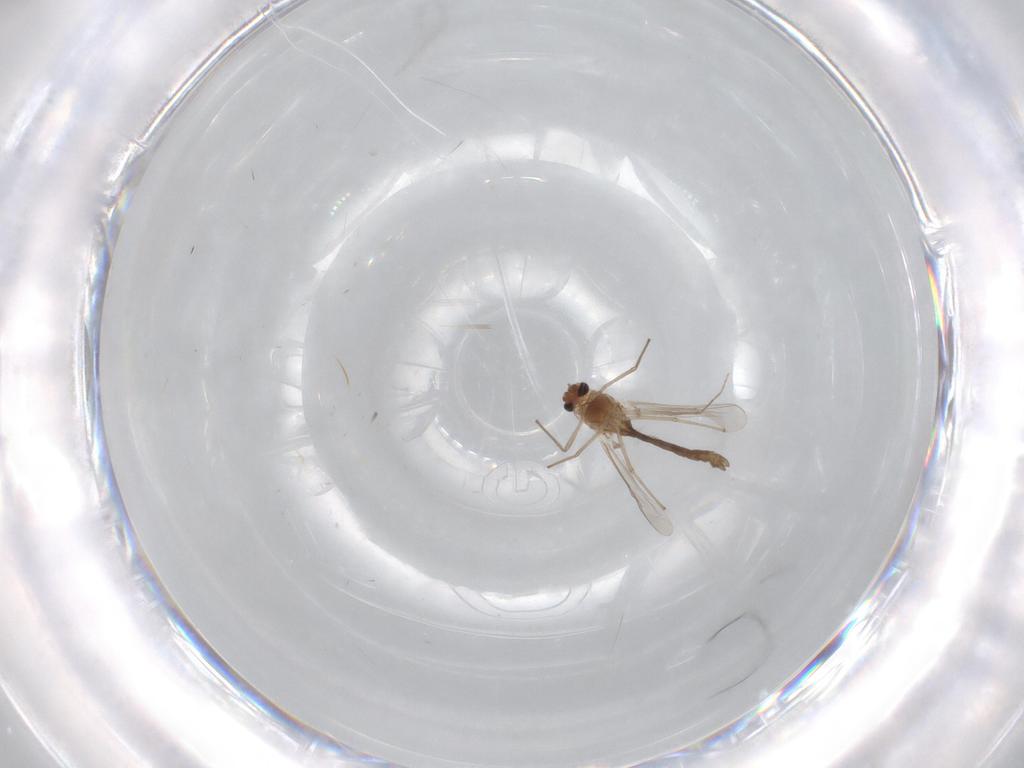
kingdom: Animalia
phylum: Arthropoda
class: Insecta
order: Diptera
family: Chironomidae
